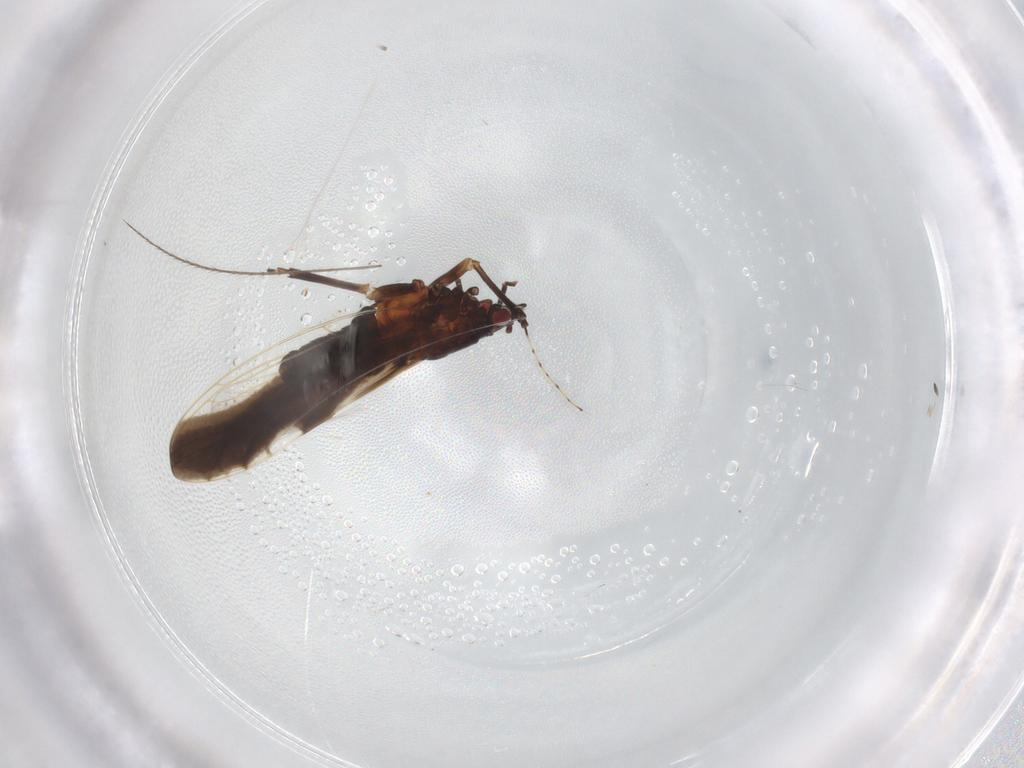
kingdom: Animalia
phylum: Arthropoda
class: Insecta
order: Hemiptera
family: Triozidae
